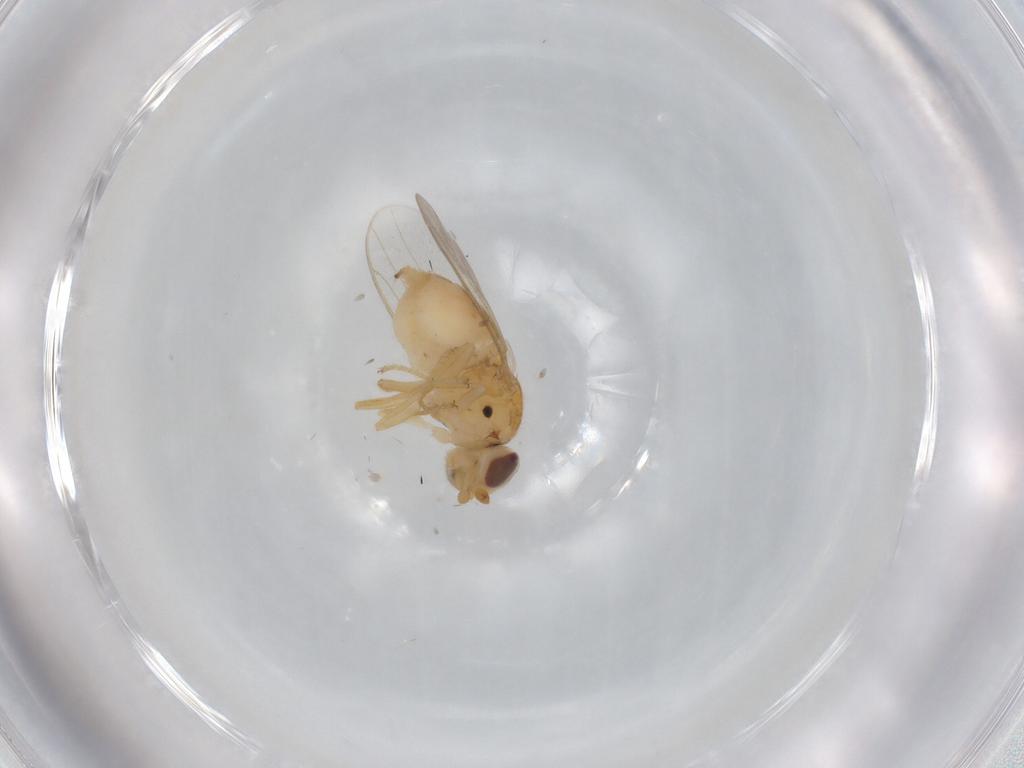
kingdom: Animalia
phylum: Arthropoda
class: Insecta
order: Diptera
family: Chloropidae
